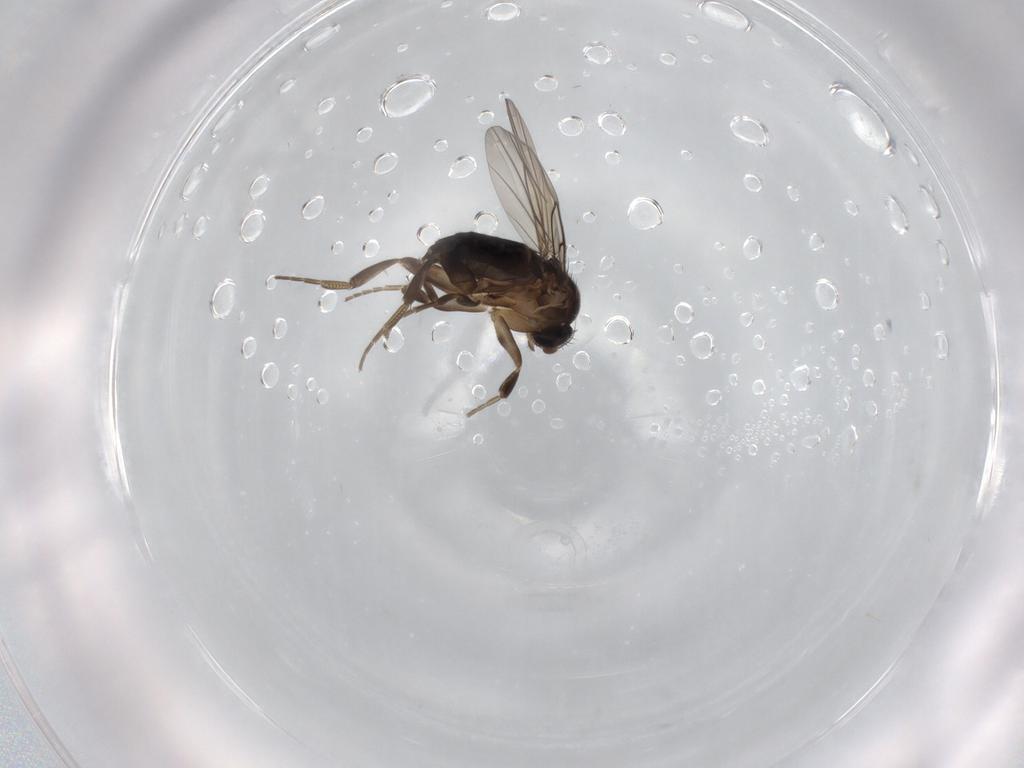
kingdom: Animalia
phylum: Arthropoda
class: Insecta
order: Diptera
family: Phoridae
